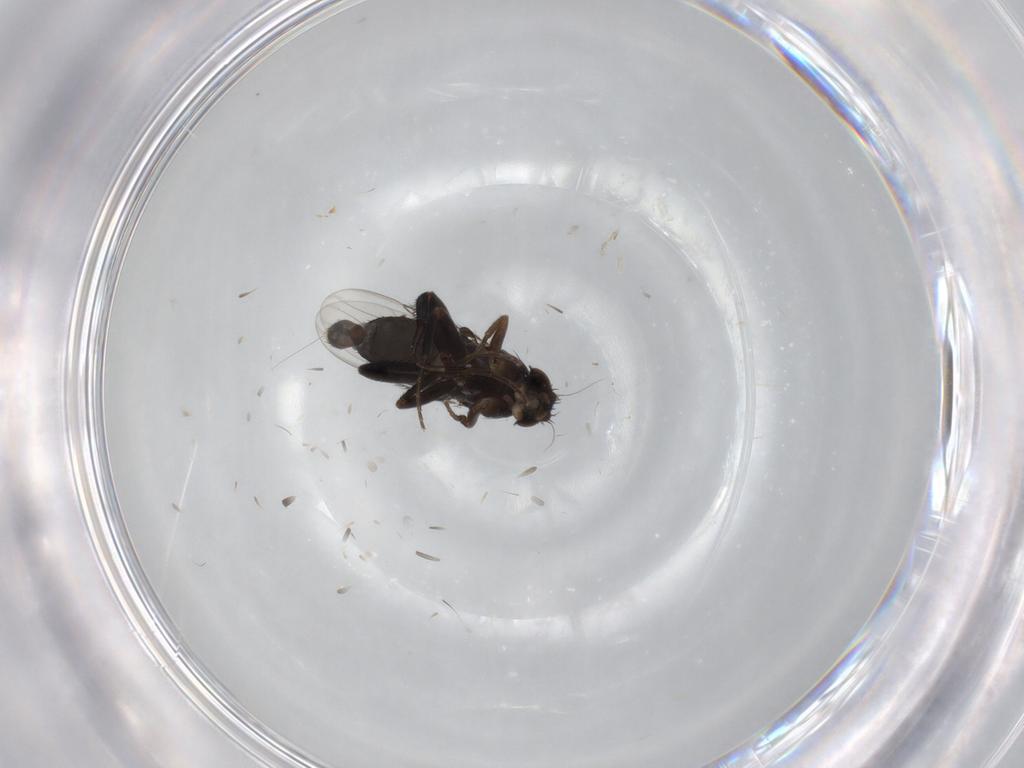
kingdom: Animalia
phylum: Arthropoda
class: Insecta
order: Diptera
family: Phoridae
